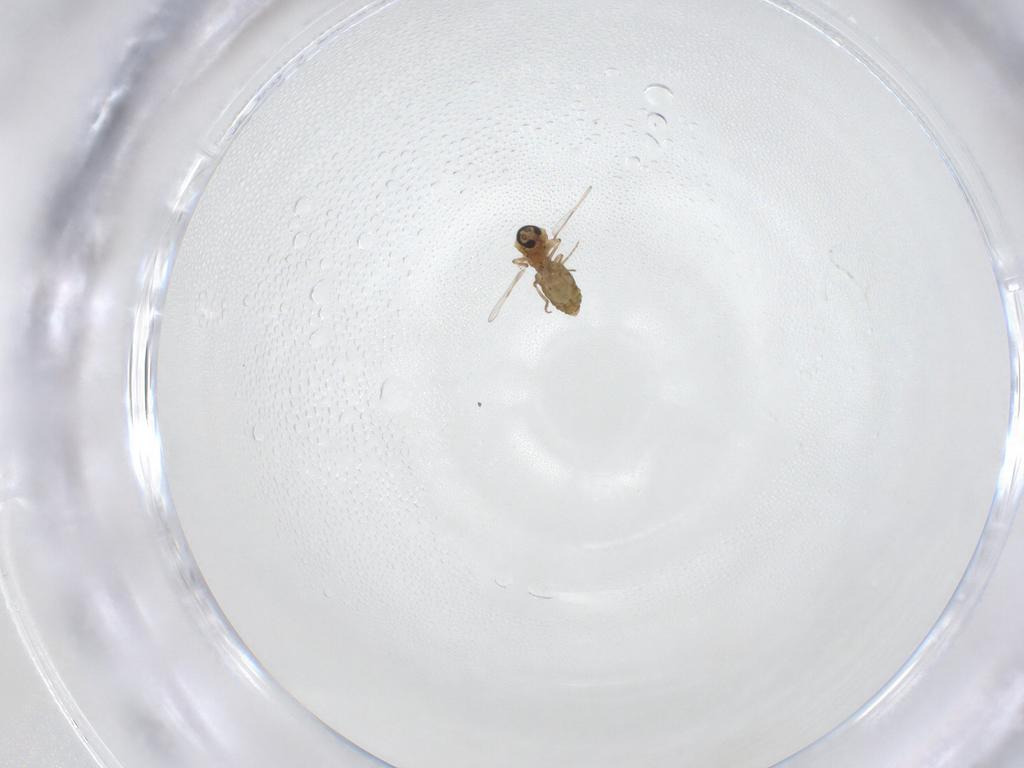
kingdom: Animalia
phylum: Arthropoda
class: Insecta
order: Diptera
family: Ceratopogonidae
